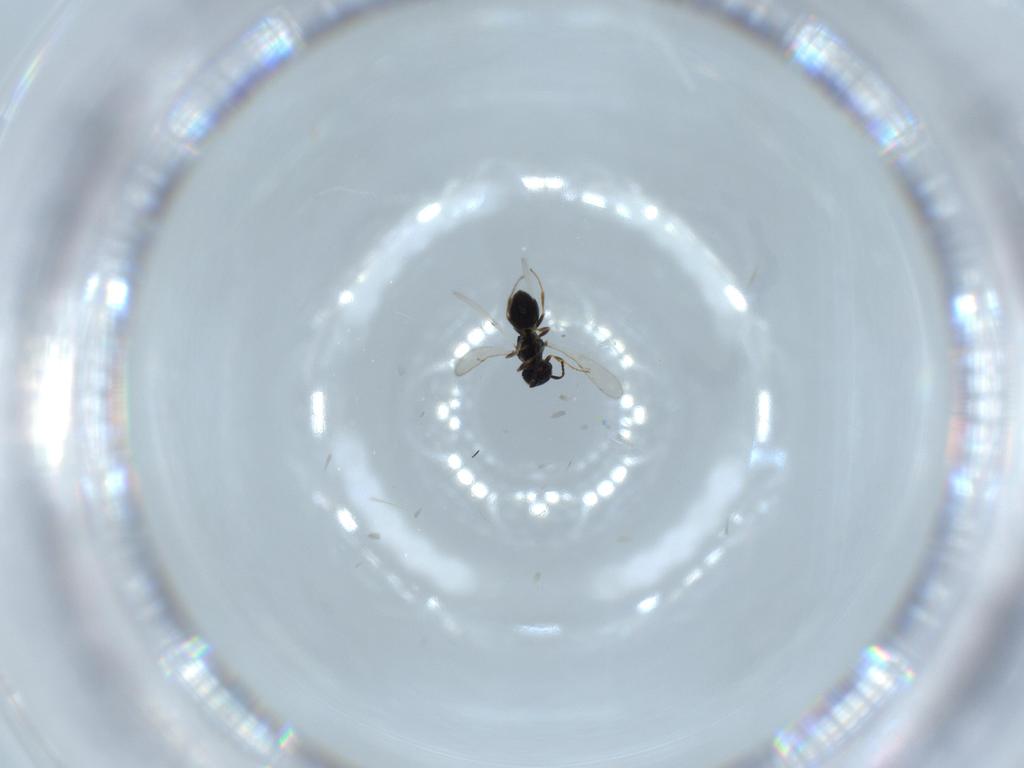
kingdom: Animalia
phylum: Arthropoda
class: Insecta
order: Hymenoptera
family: Scelionidae
